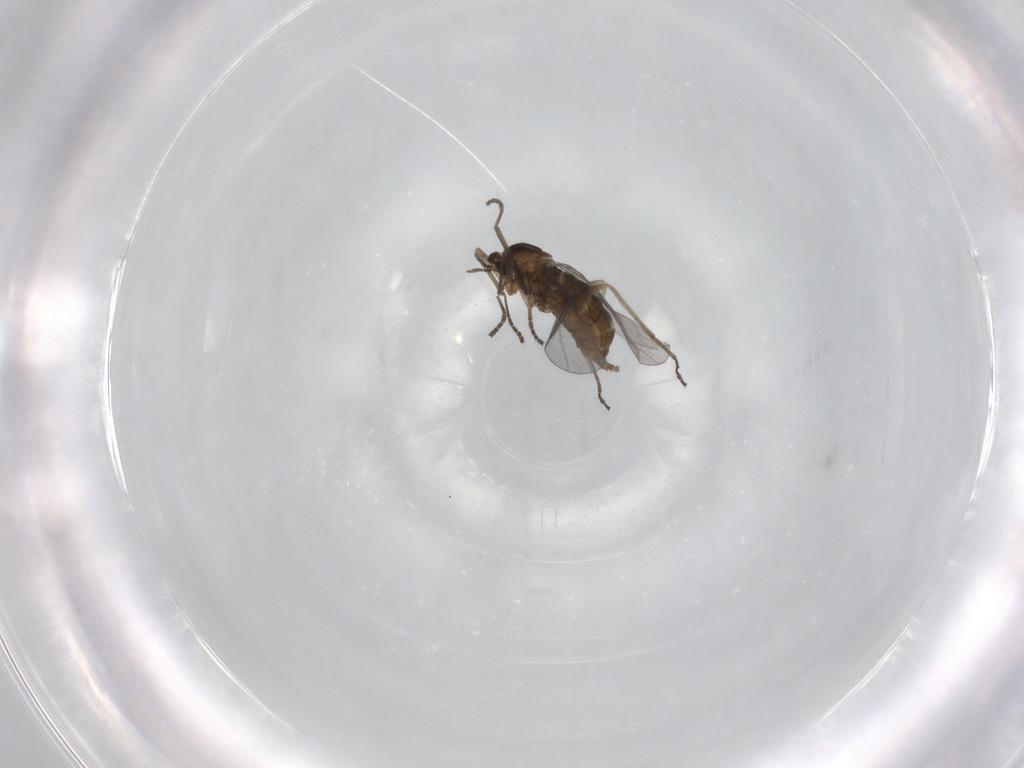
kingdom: Animalia
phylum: Arthropoda
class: Insecta
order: Diptera
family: Cecidomyiidae
